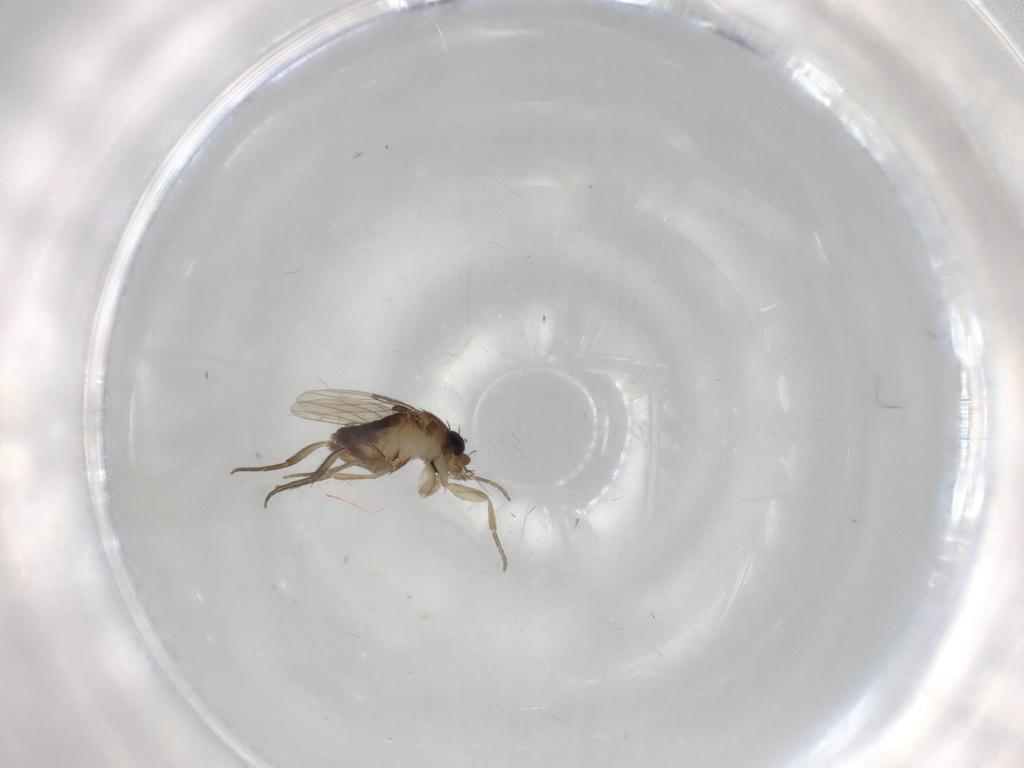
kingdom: Animalia
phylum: Arthropoda
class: Insecta
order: Diptera
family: Phoridae
